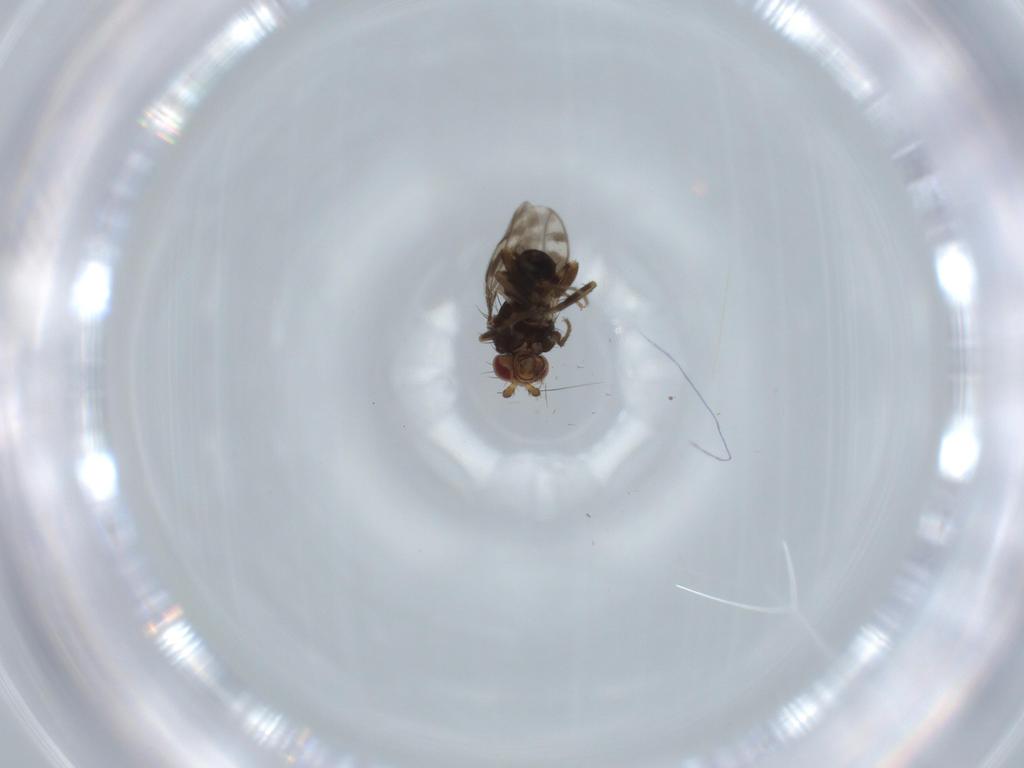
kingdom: Animalia
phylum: Arthropoda
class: Insecta
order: Diptera
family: Sphaeroceridae
